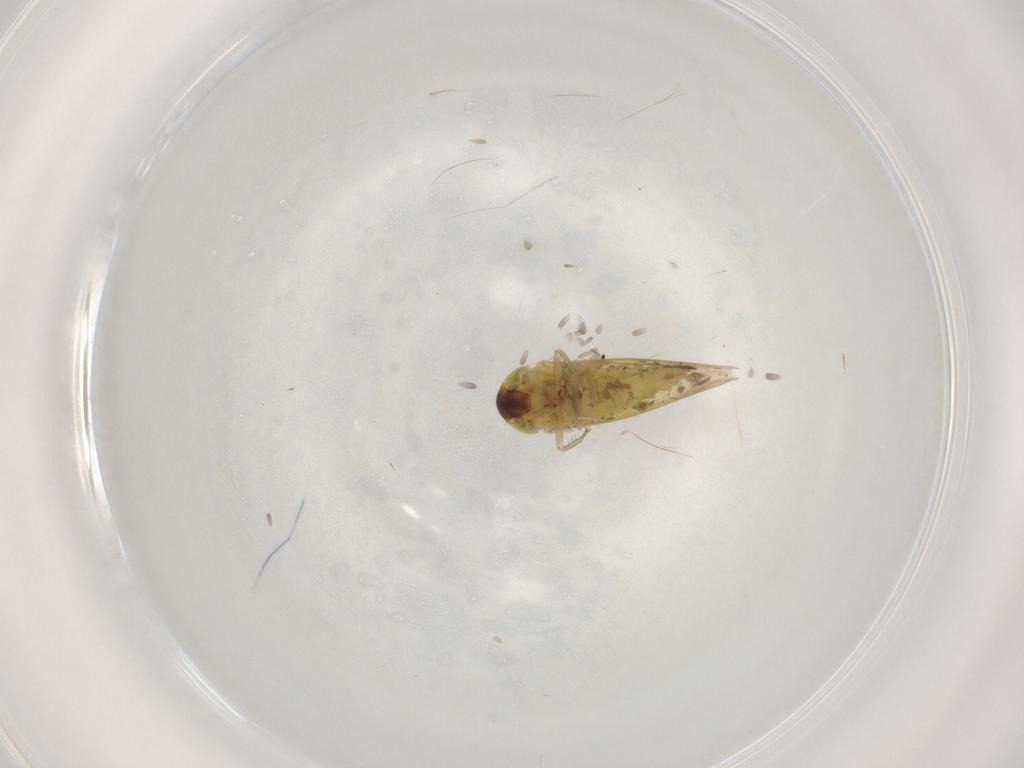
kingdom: Animalia
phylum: Arthropoda
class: Insecta
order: Hemiptera
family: Cicadellidae
